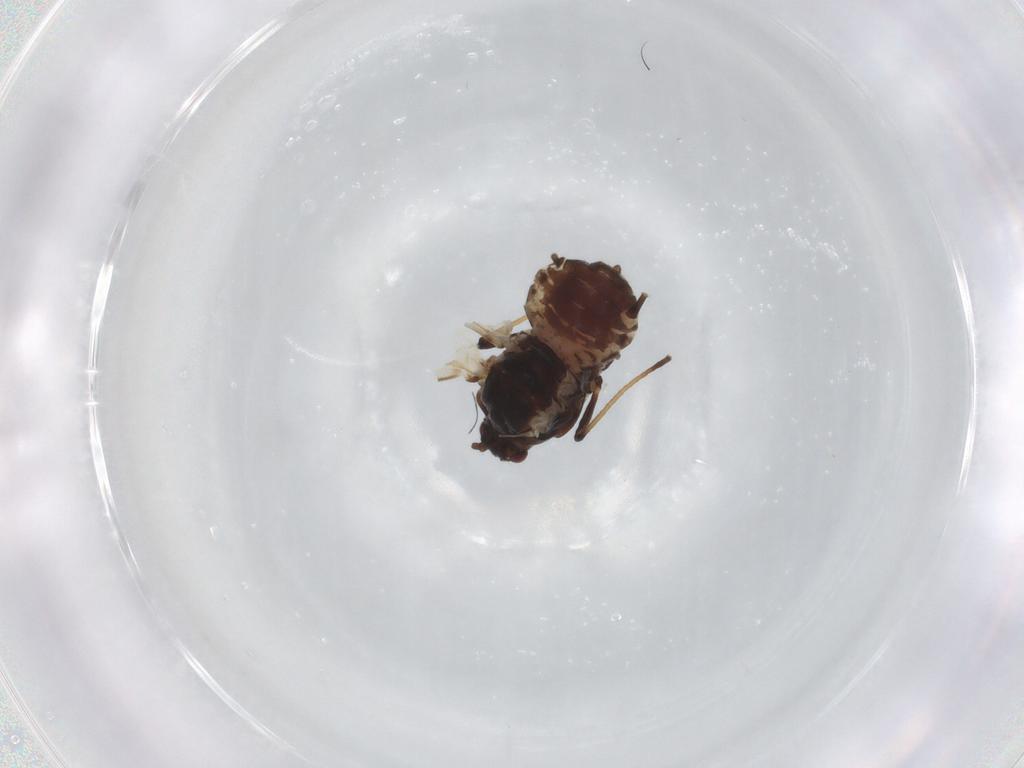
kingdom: Animalia
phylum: Arthropoda
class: Insecta
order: Hemiptera
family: Aphididae
